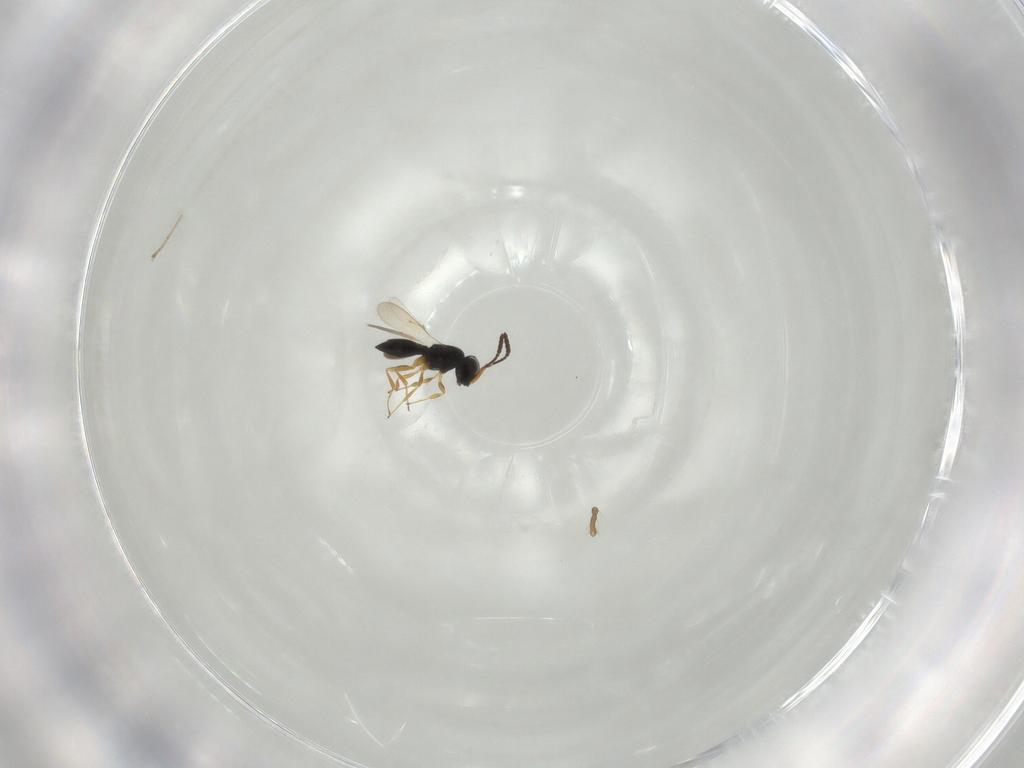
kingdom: Animalia
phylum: Arthropoda
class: Insecta
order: Hymenoptera
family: Scelionidae
